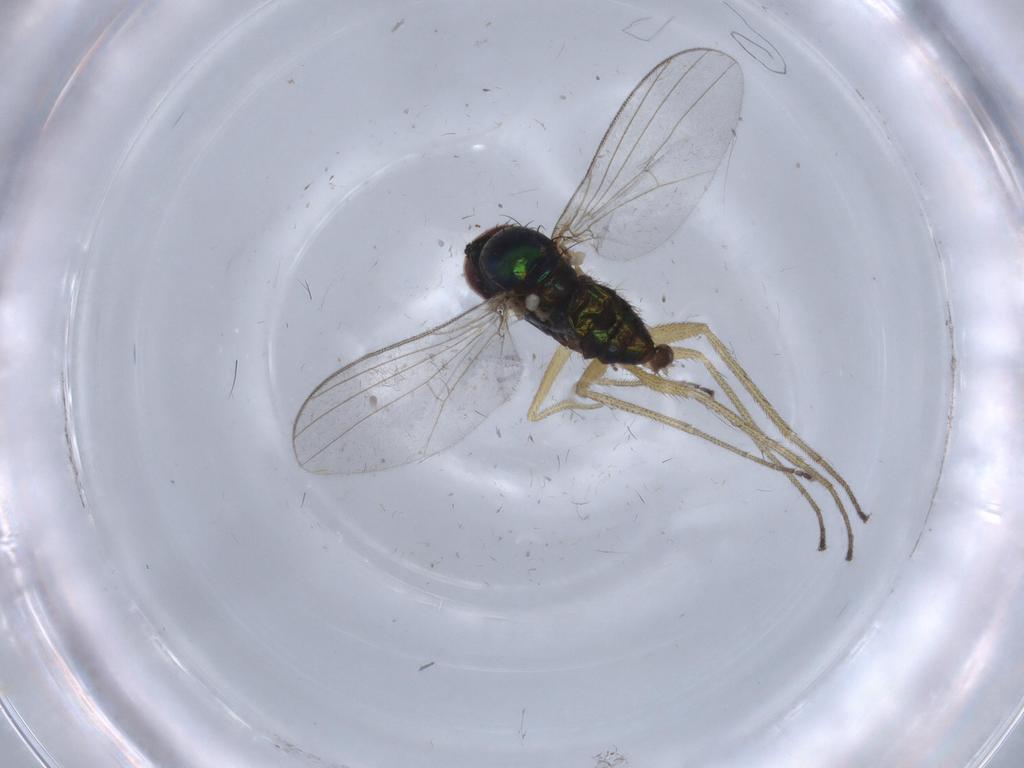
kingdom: Animalia
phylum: Arthropoda
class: Insecta
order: Diptera
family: Dolichopodidae
